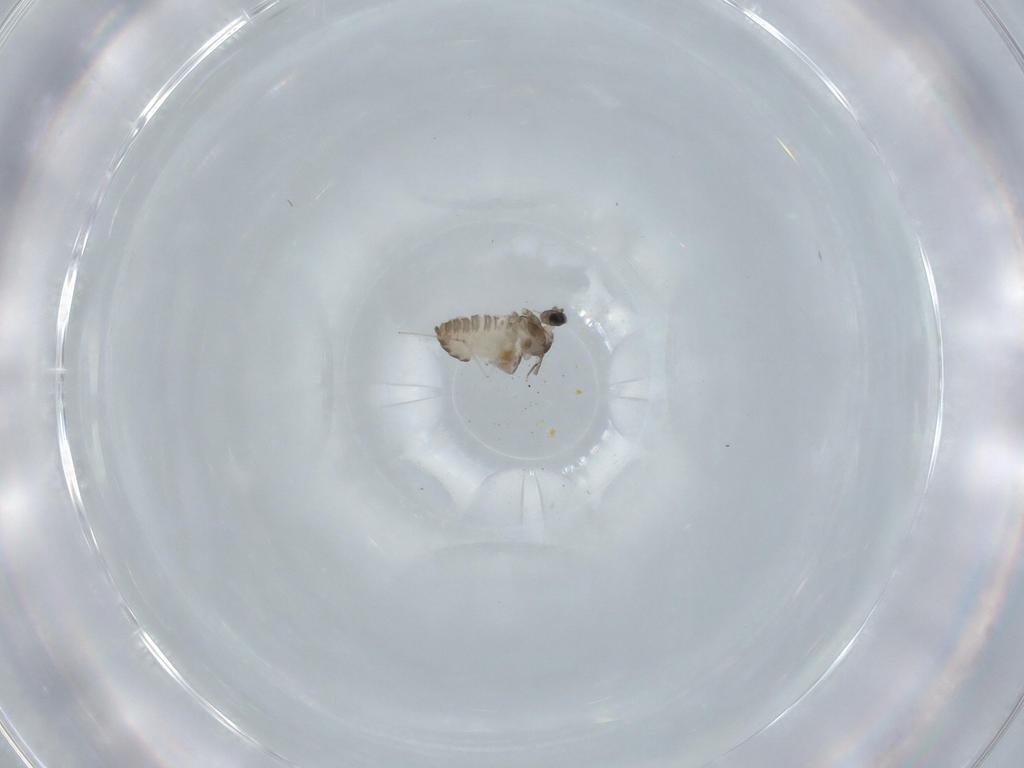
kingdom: Animalia
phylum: Arthropoda
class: Insecta
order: Diptera
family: Cecidomyiidae
